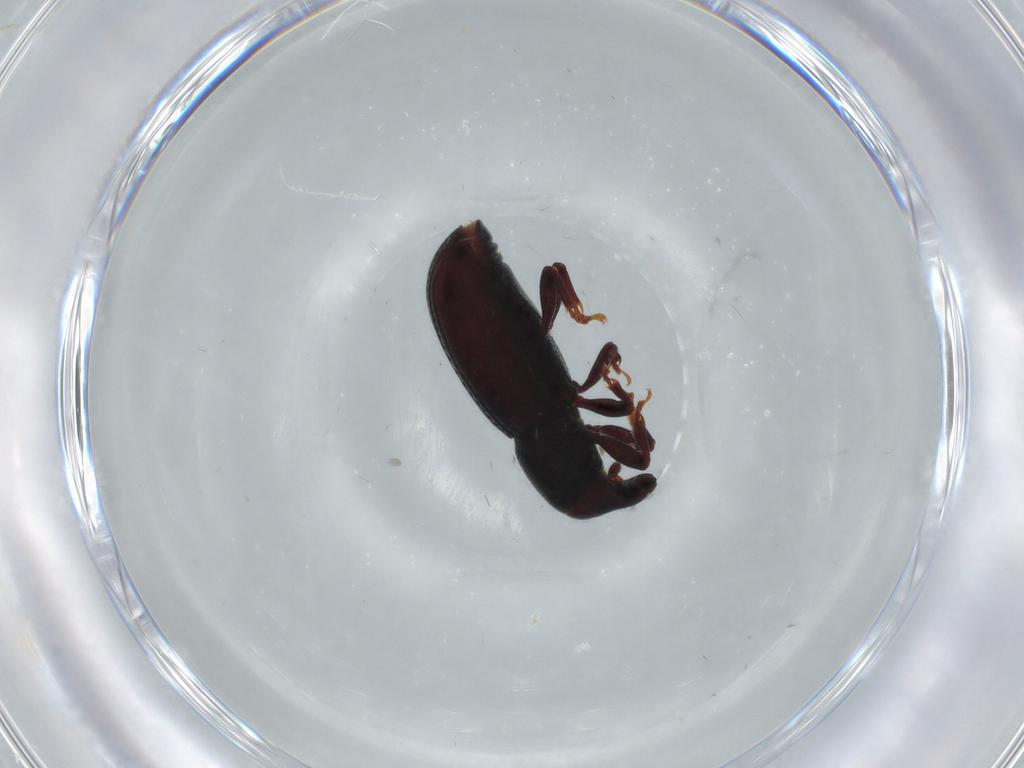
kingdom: Animalia
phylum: Arthropoda
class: Insecta
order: Coleoptera
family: Curculionidae
